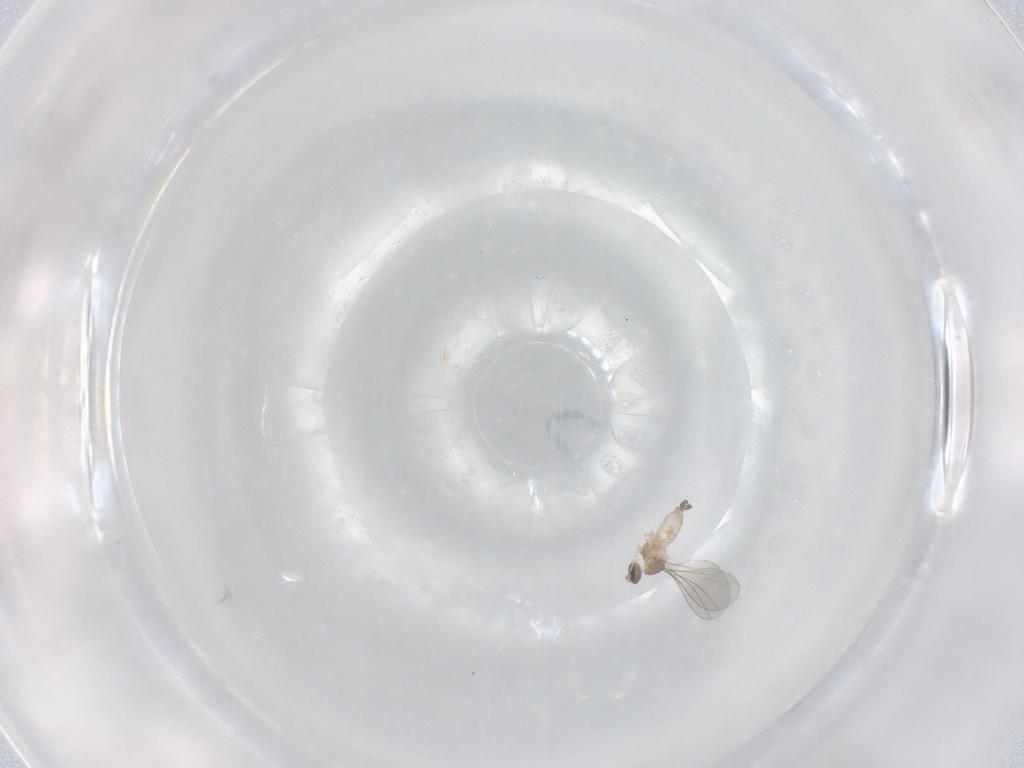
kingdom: Animalia
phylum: Arthropoda
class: Insecta
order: Diptera
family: Cecidomyiidae
